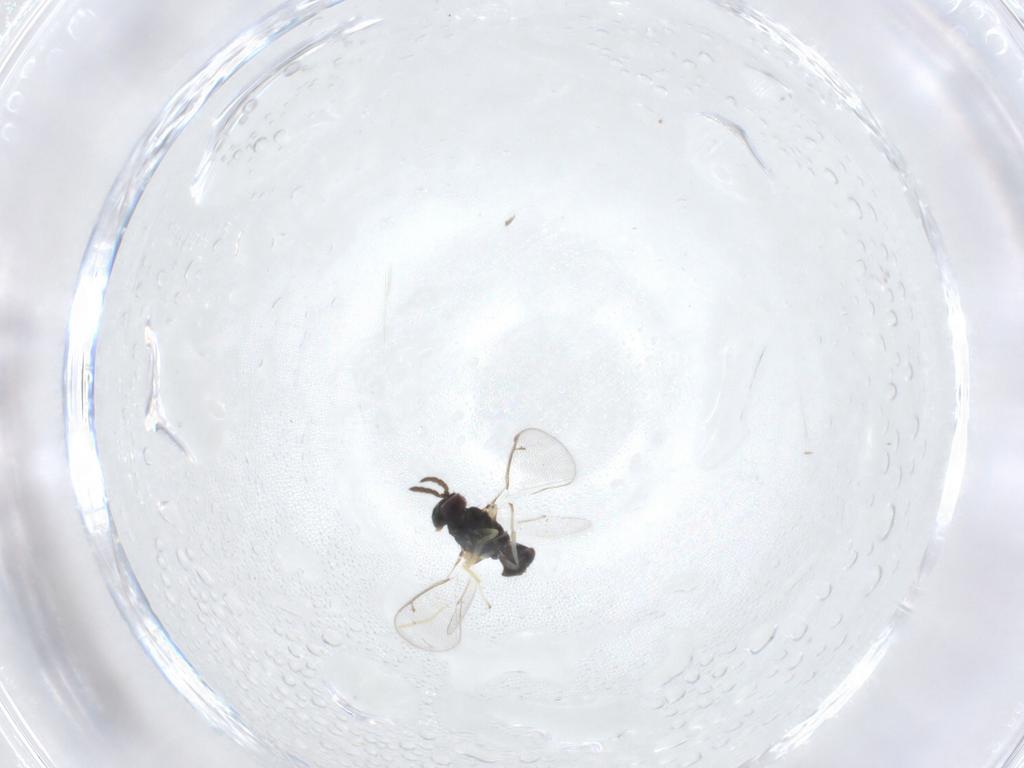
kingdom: Animalia
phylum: Arthropoda
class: Insecta
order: Hymenoptera
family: Eulophidae
